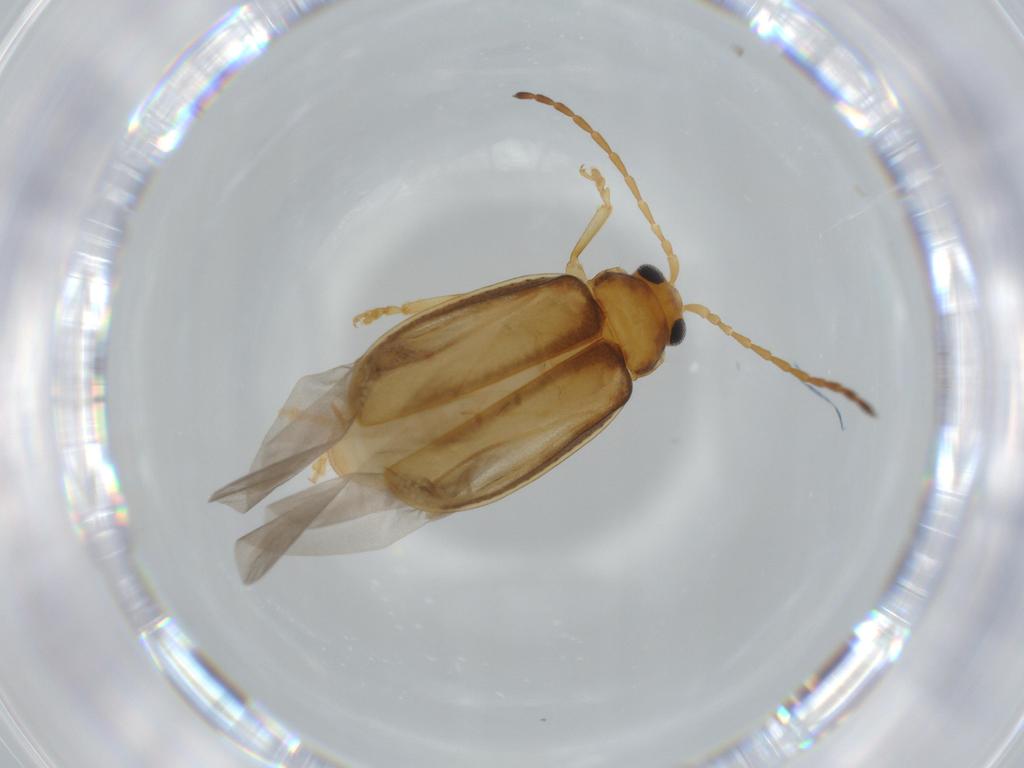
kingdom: Animalia
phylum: Arthropoda
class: Insecta
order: Coleoptera
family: Chrysomelidae
